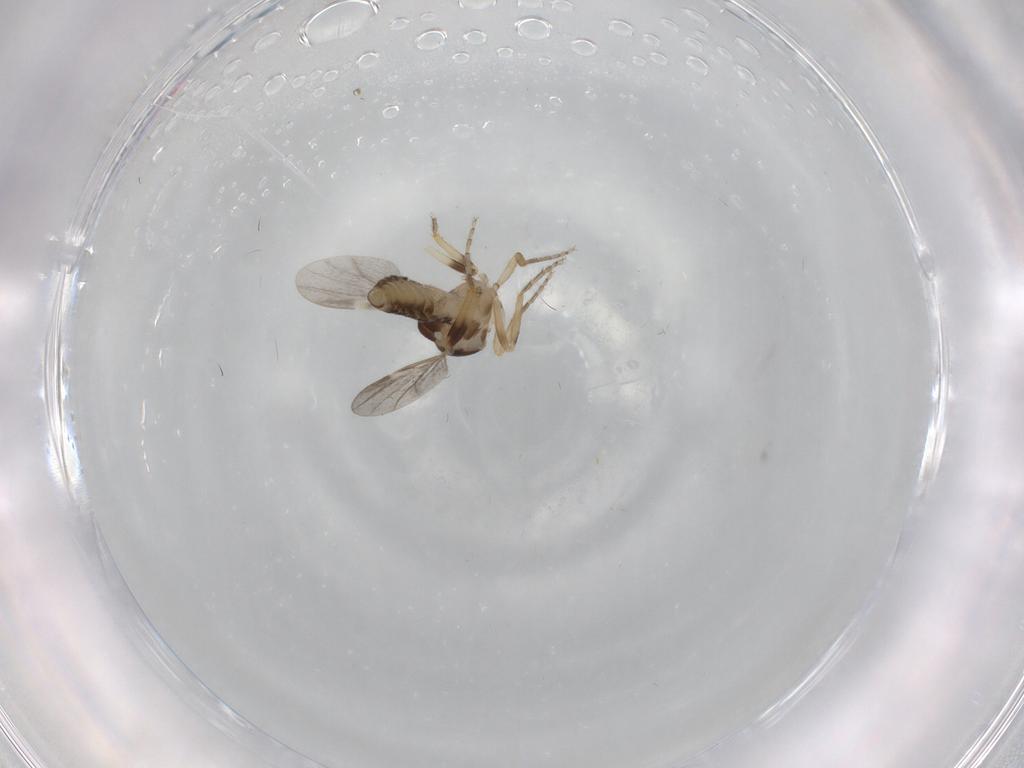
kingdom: Animalia
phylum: Arthropoda
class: Insecta
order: Diptera
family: Ceratopogonidae
